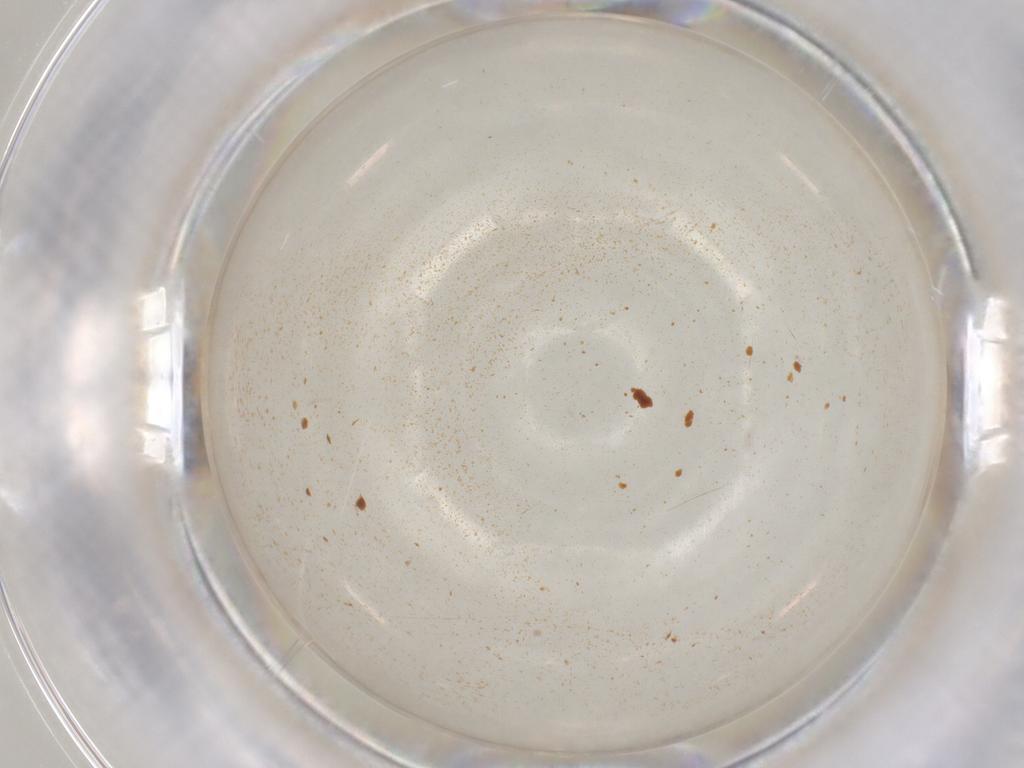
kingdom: Animalia
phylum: Arthropoda
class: Insecta
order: Diptera
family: Cecidomyiidae
